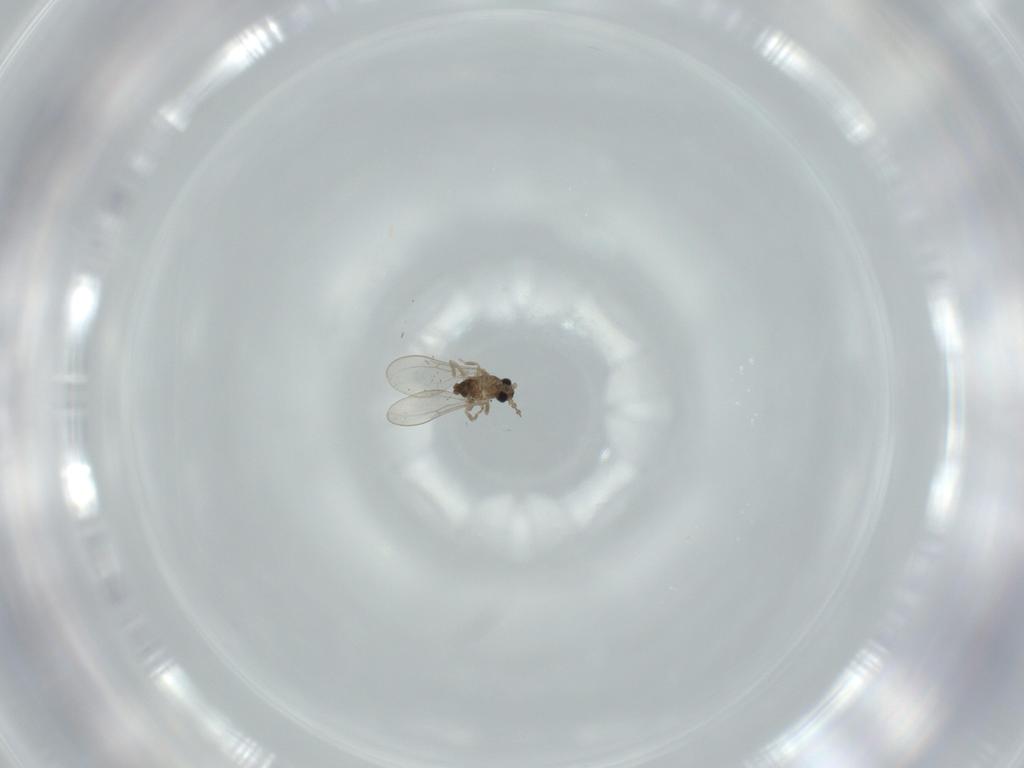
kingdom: Animalia
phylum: Arthropoda
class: Insecta
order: Diptera
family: Cecidomyiidae
